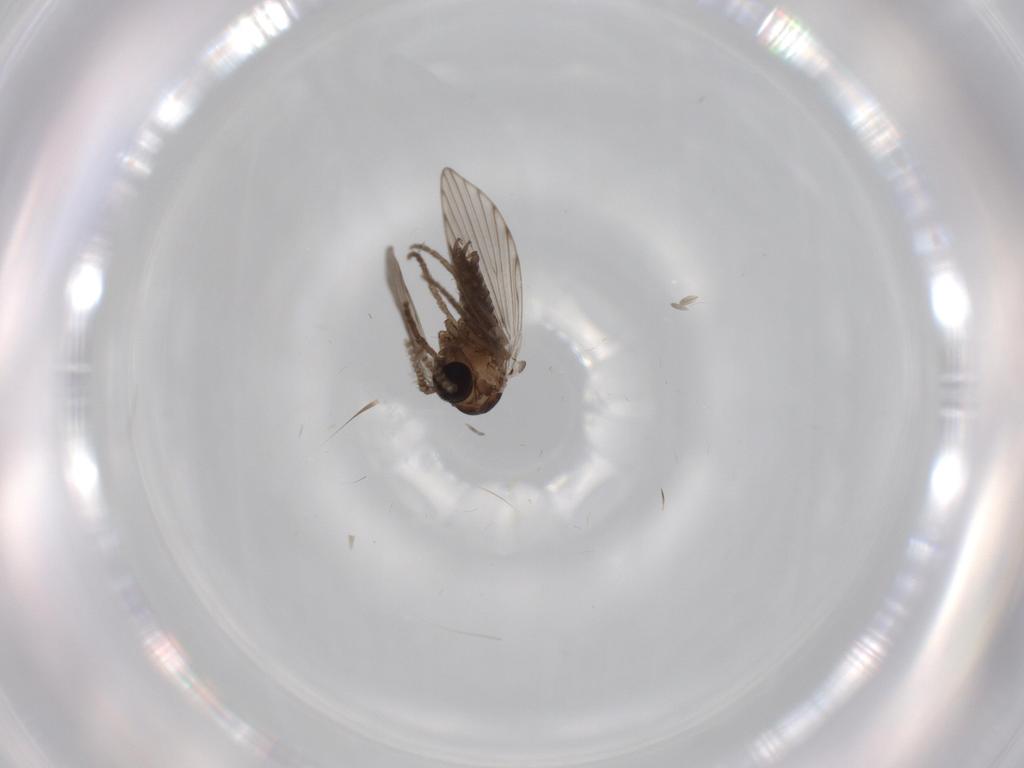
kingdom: Animalia
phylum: Arthropoda
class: Insecta
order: Diptera
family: Psychodidae
